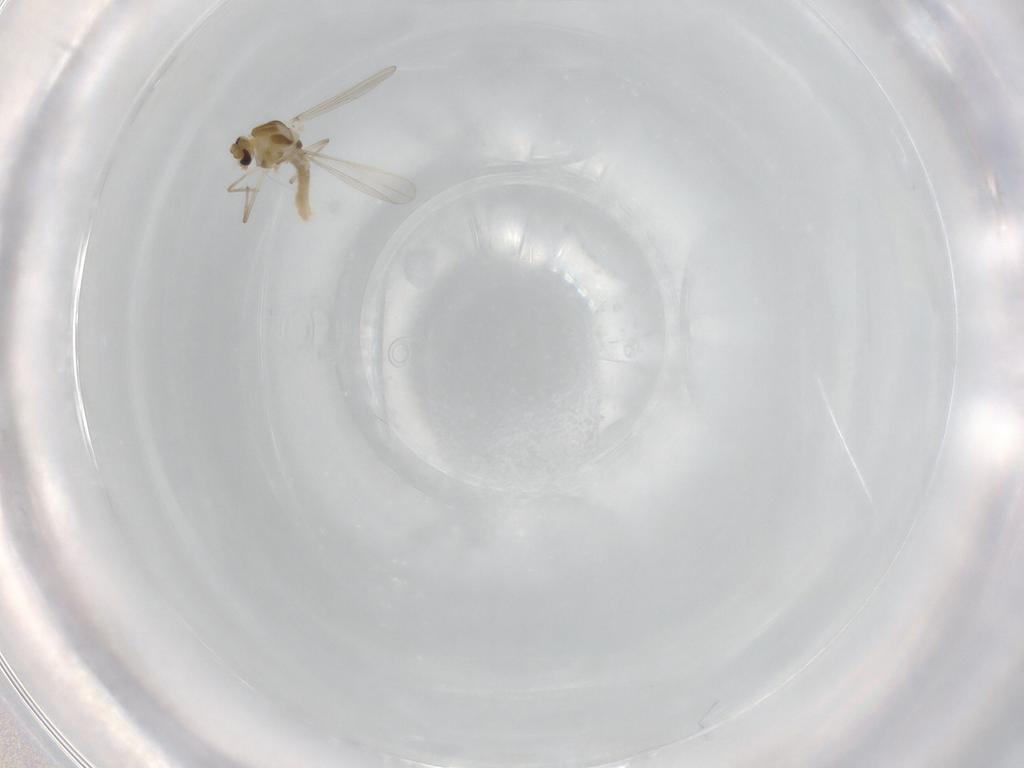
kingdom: Animalia
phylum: Arthropoda
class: Insecta
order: Diptera
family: Chironomidae
